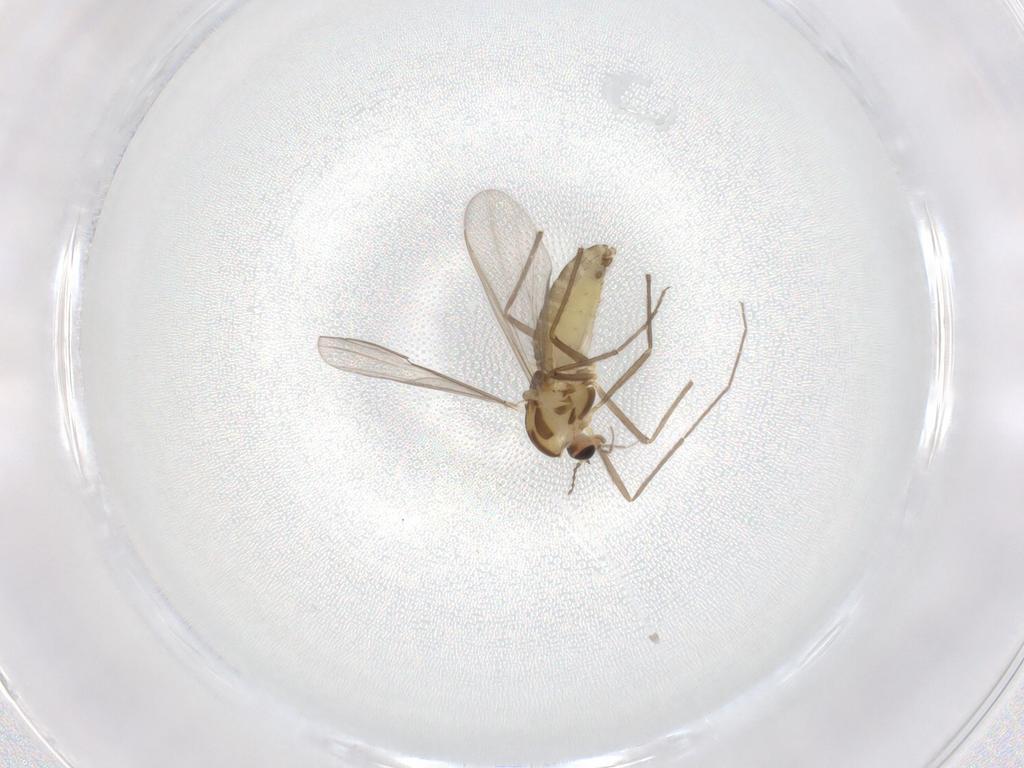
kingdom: Animalia
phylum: Arthropoda
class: Insecta
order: Diptera
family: Chironomidae
